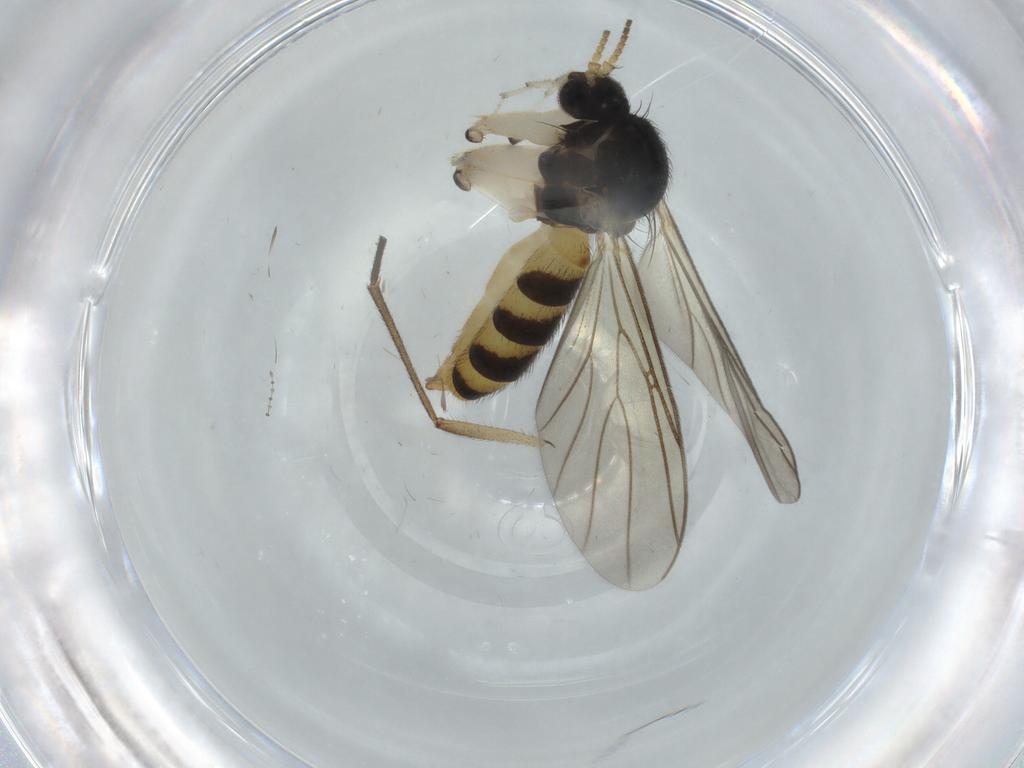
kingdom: Animalia
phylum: Arthropoda
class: Insecta
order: Diptera
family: Mycetophilidae
